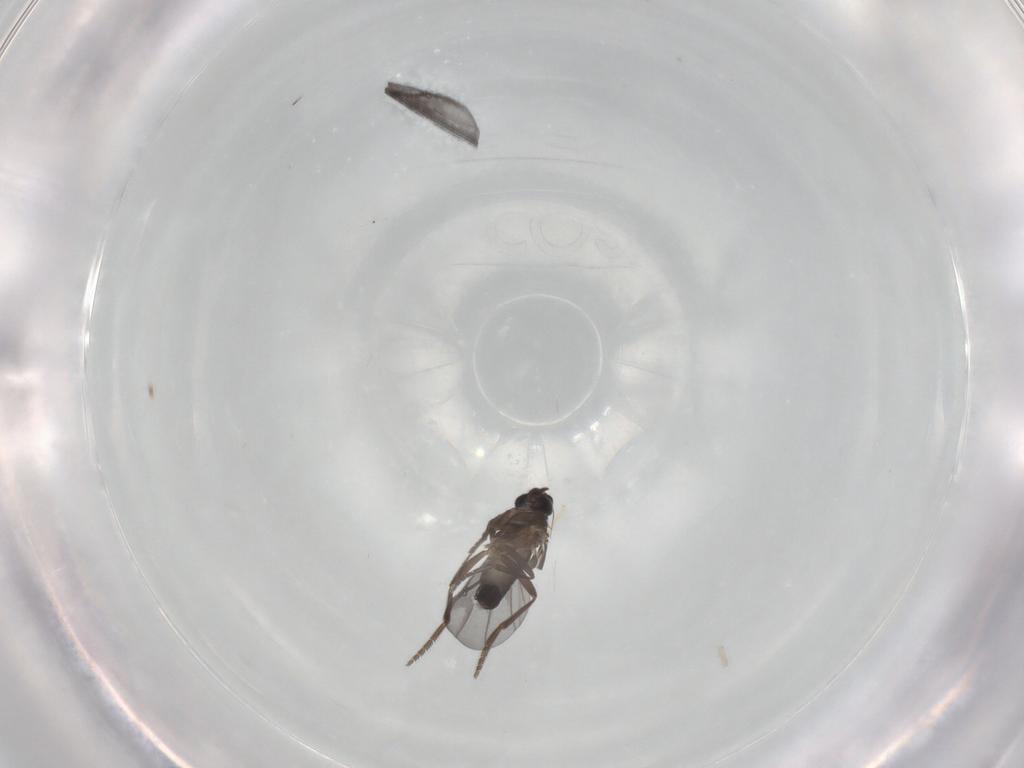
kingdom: Animalia
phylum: Arthropoda
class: Insecta
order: Diptera
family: Phoridae
